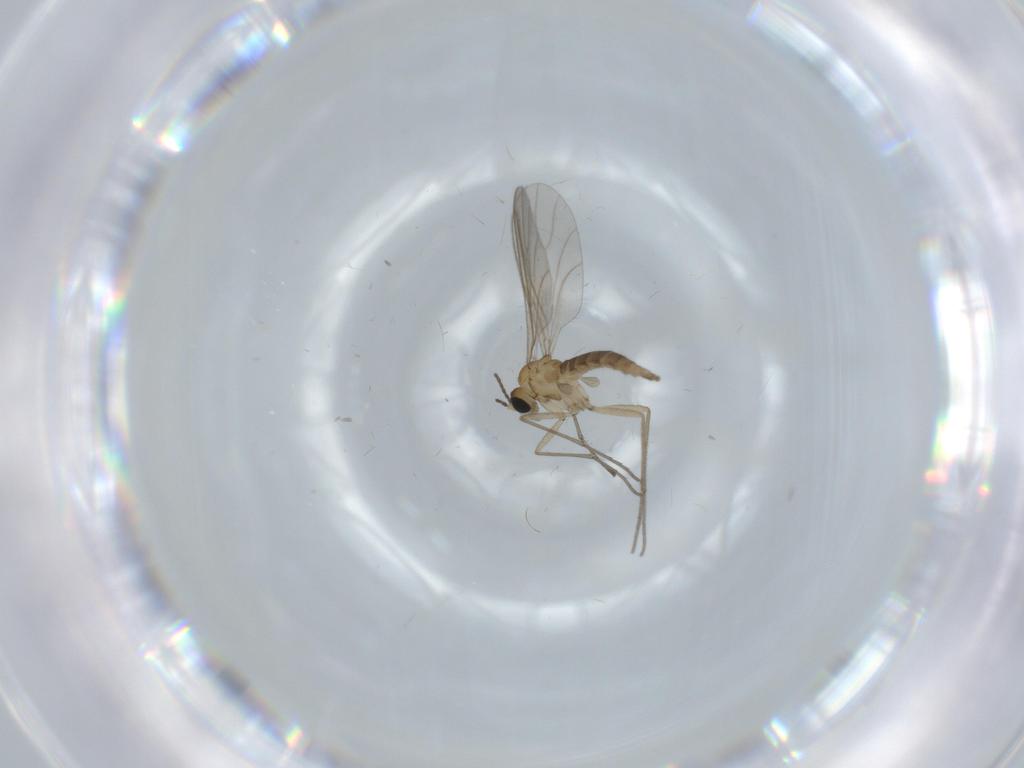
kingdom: Animalia
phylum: Arthropoda
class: Insecta
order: Diptera
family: Sciaridae
